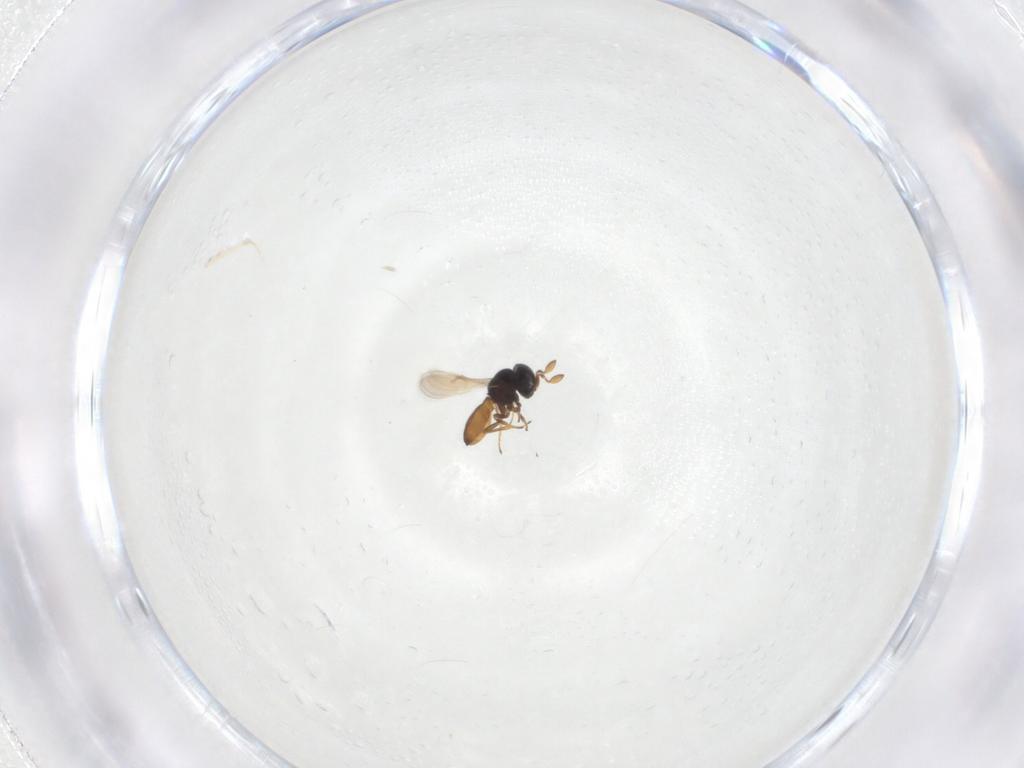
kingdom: Animalia
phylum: Arthropoda
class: Insecta
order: Hymenoptera
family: Scelionidae
